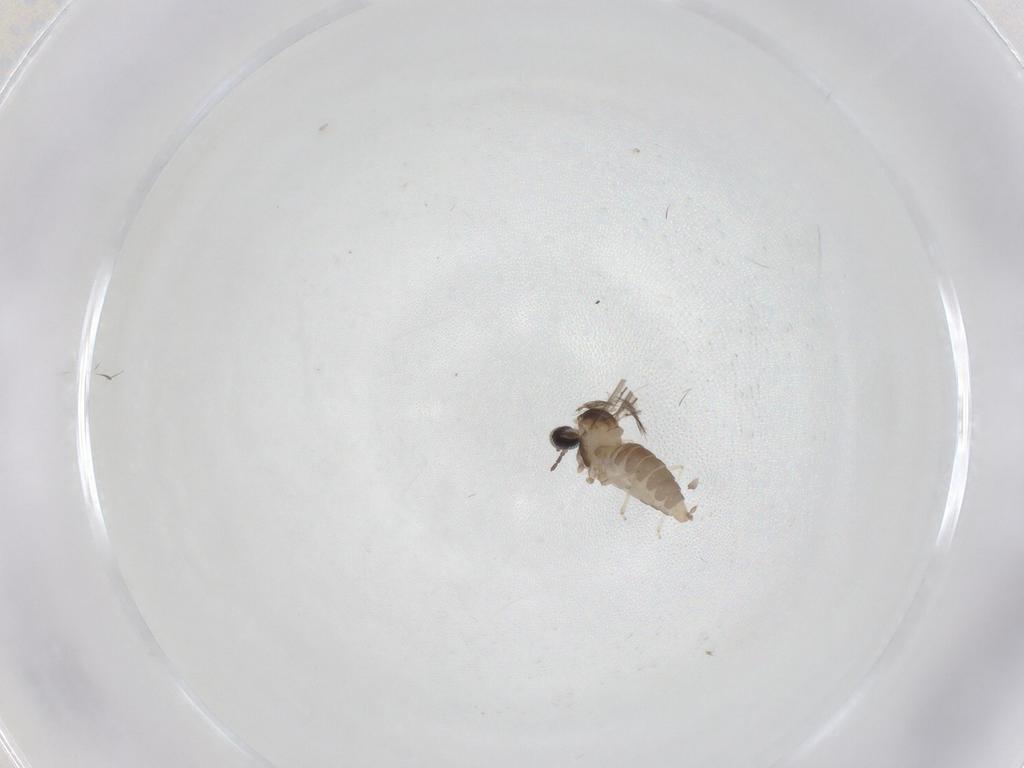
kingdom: Animalia
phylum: Arthropoda
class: Insecta
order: Diptera
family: Cecidomyiidae
